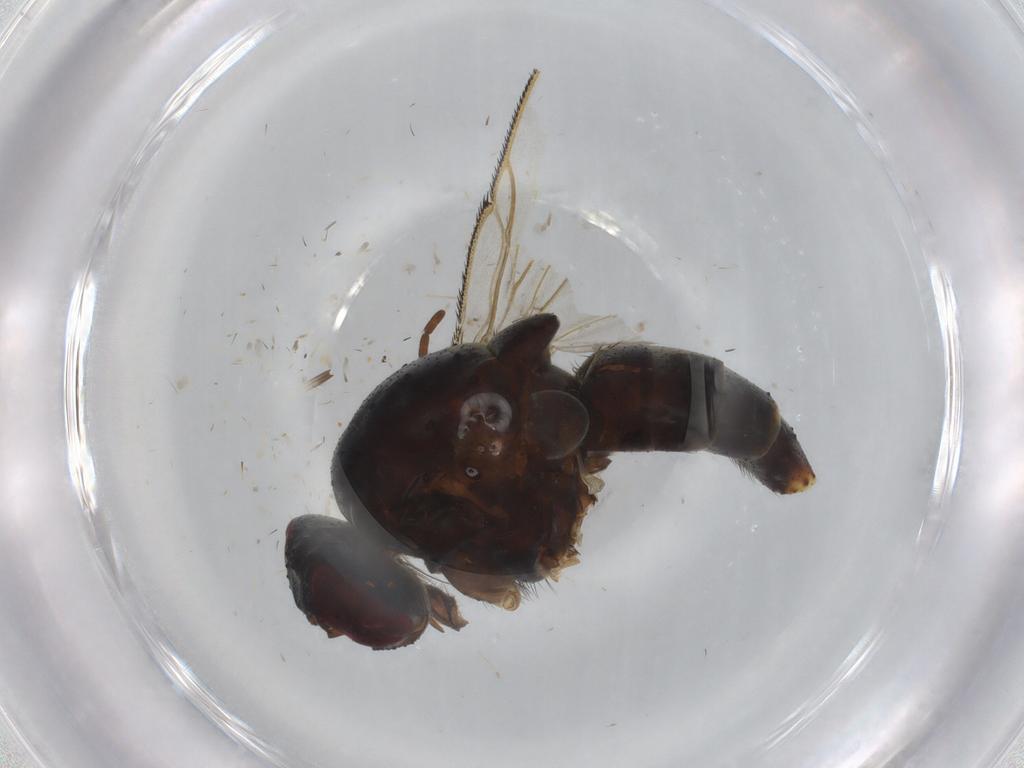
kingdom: Animalia
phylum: Arthropoda
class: Insecta
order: Diptera
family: Muscidae
